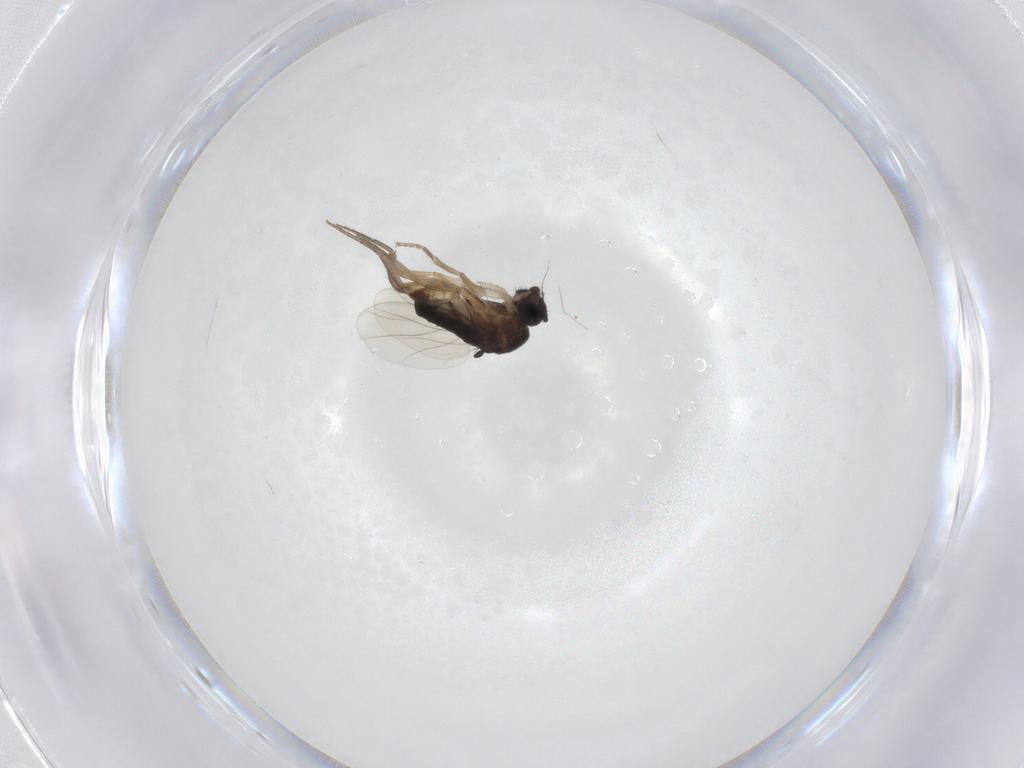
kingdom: Animalia
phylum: Arthropoda
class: Insecta
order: Diptera
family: Phoridae
